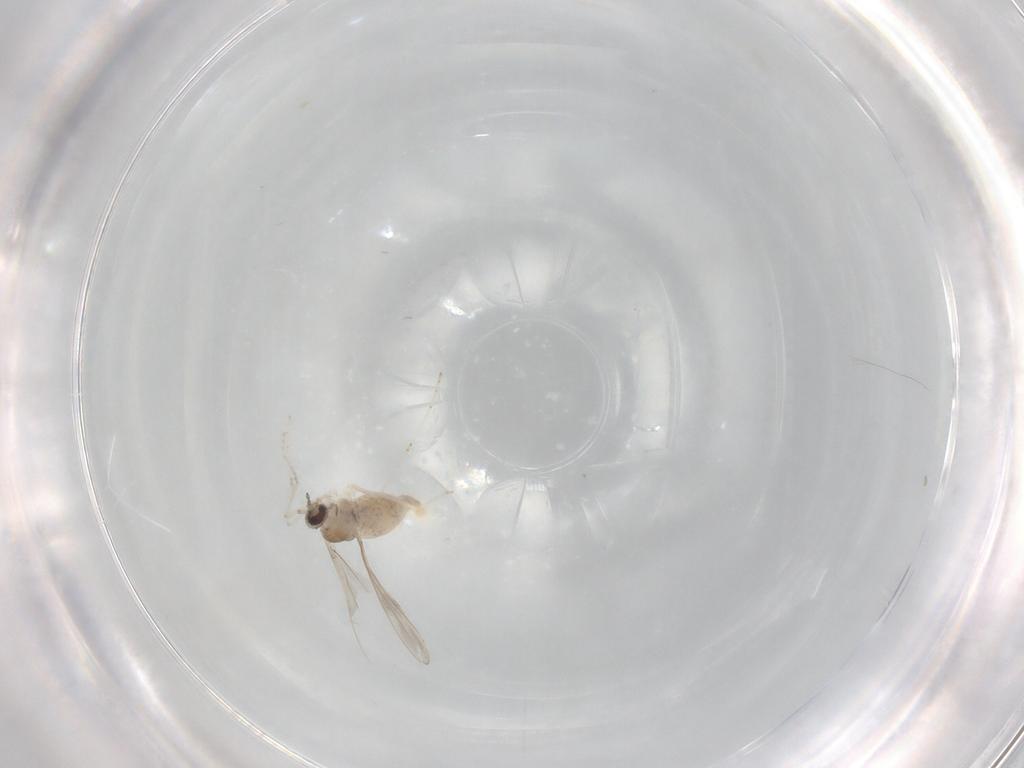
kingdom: Animalia
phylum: Arthropoda
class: Insecta
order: Diptera
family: Cecidomyiidae
